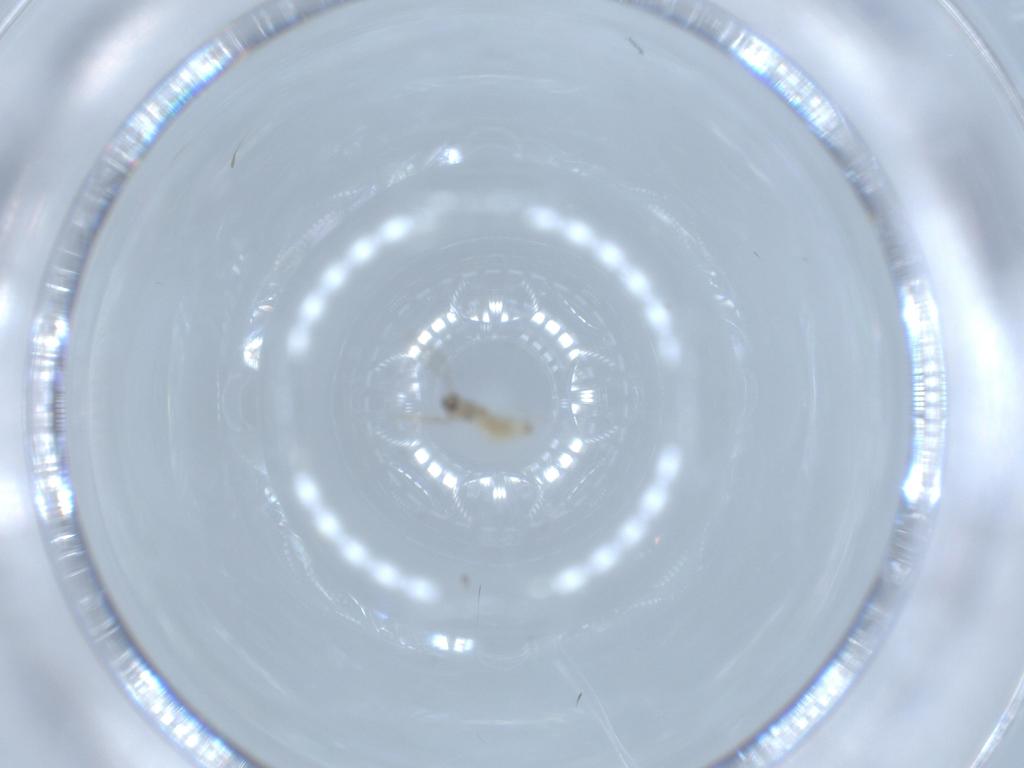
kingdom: Animalia
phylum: Arthropoda
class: Insecta
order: Diptera
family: Cecidomyiidae
